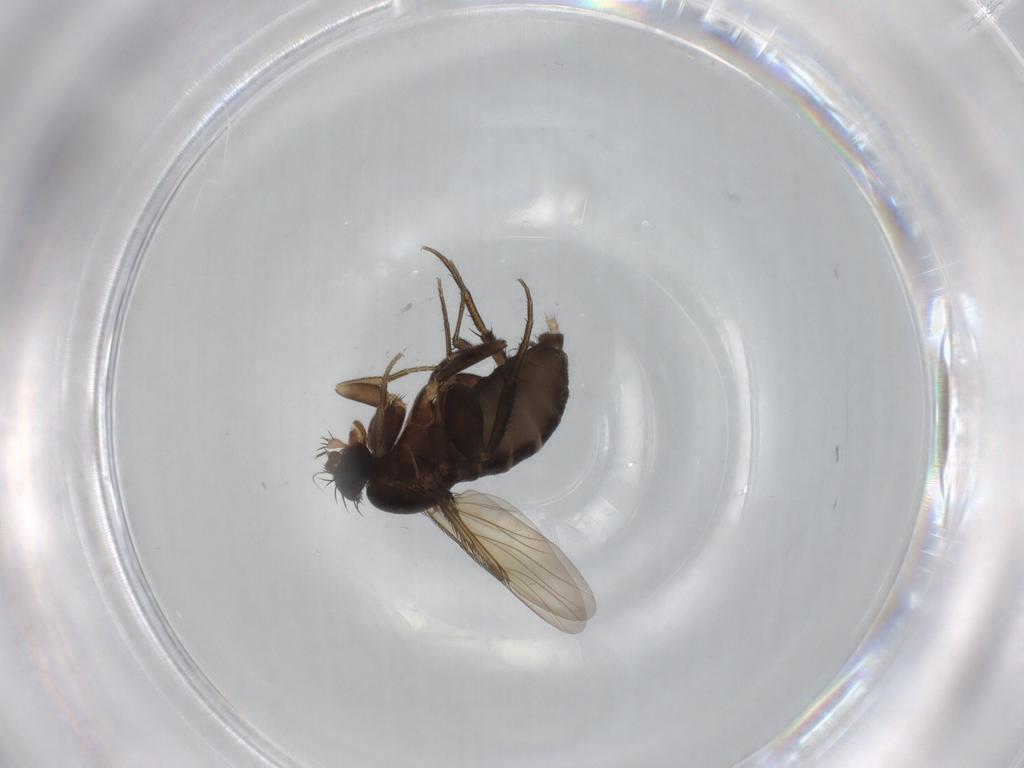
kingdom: Animalia
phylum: Arthropoda
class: Insecta
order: Diptera
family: Phoridae
